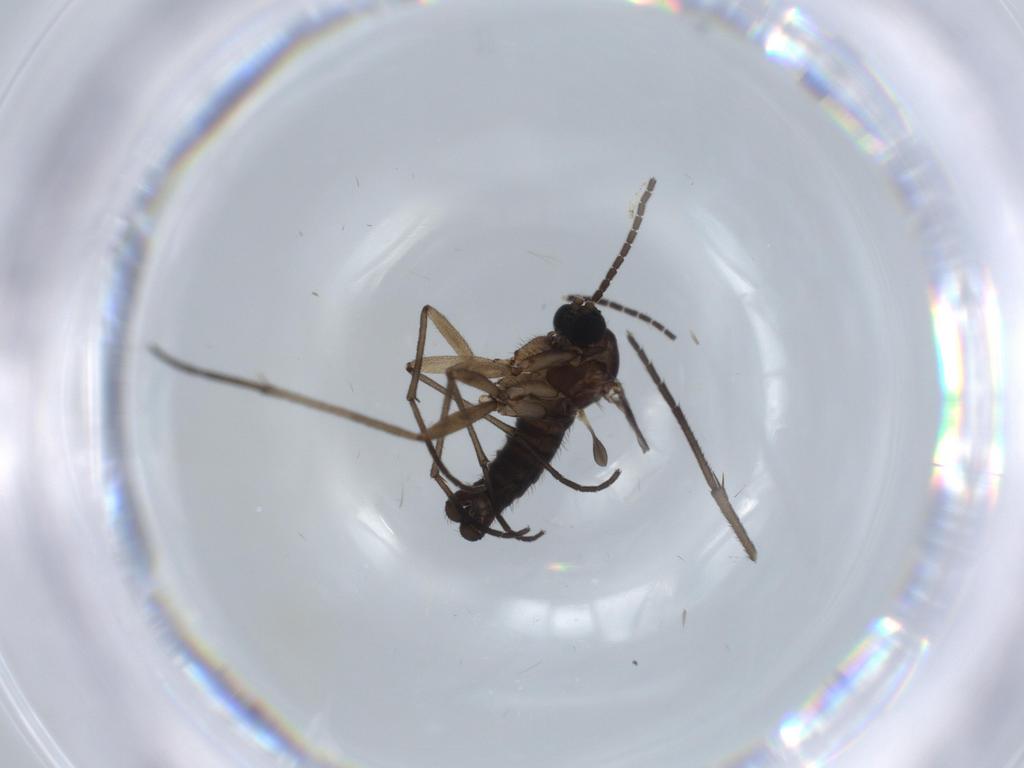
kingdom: Animalia
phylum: Arthropoda
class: Insecta
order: Diptera
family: Sciaridae
